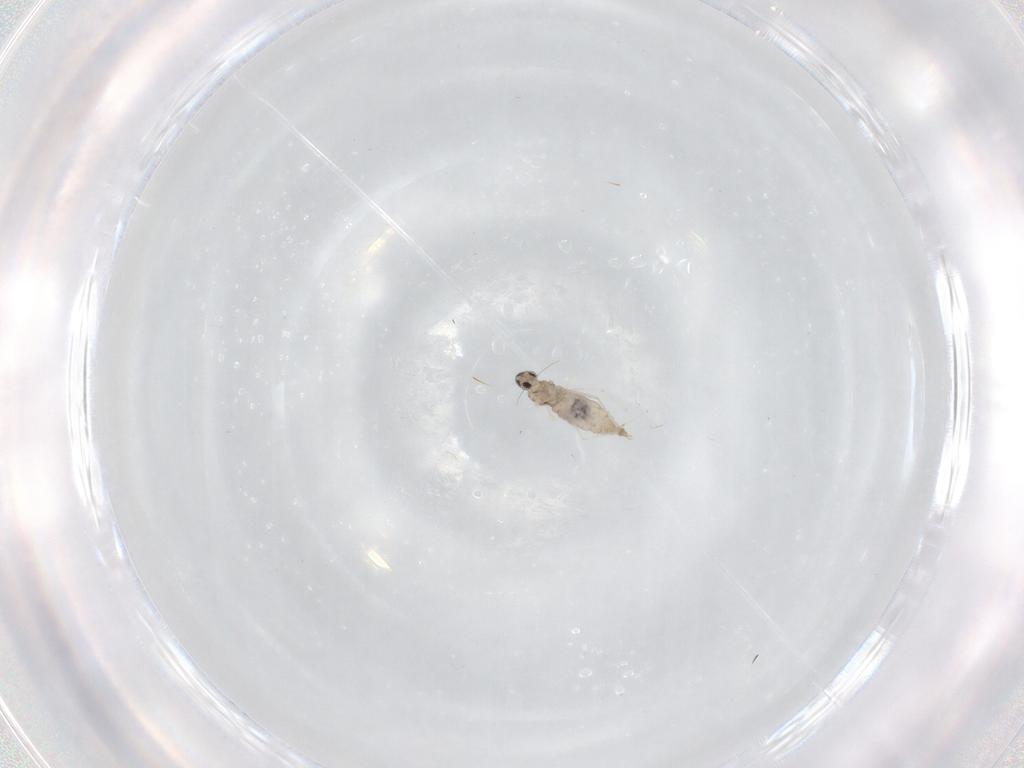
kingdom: Animalia
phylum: Arthropoda
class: Insecta
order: Diptera
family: Cecidomyiidae
